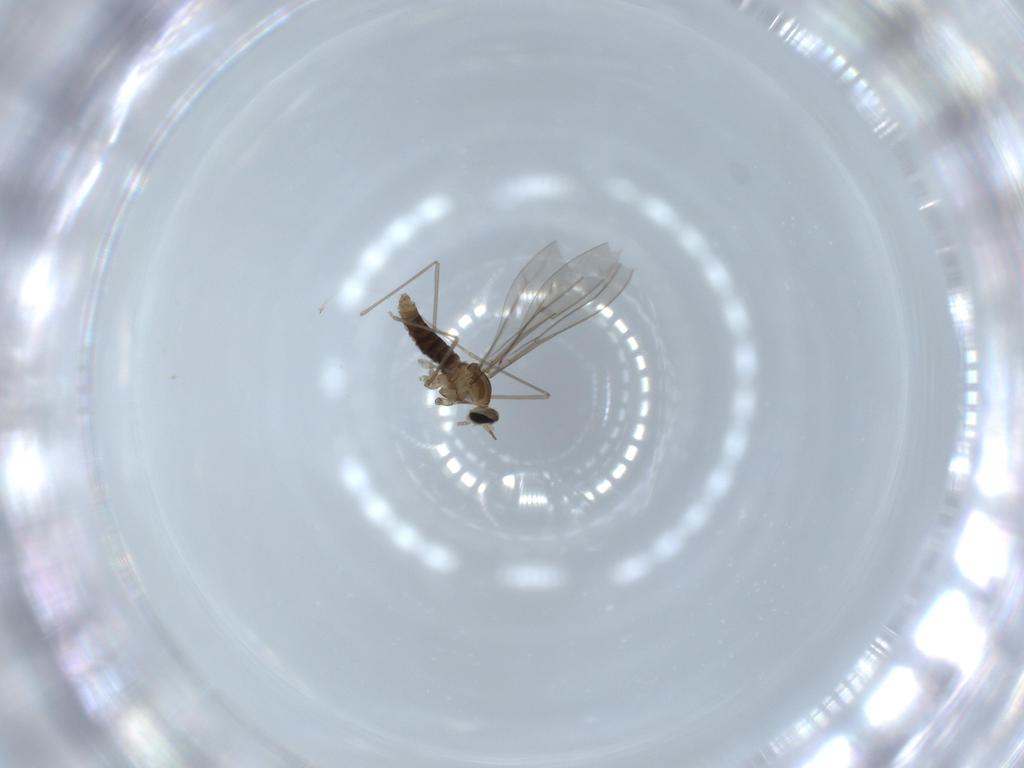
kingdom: Animalia
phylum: Arthropoda
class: Insecta
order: Diptera
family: Cecidomyiidae
